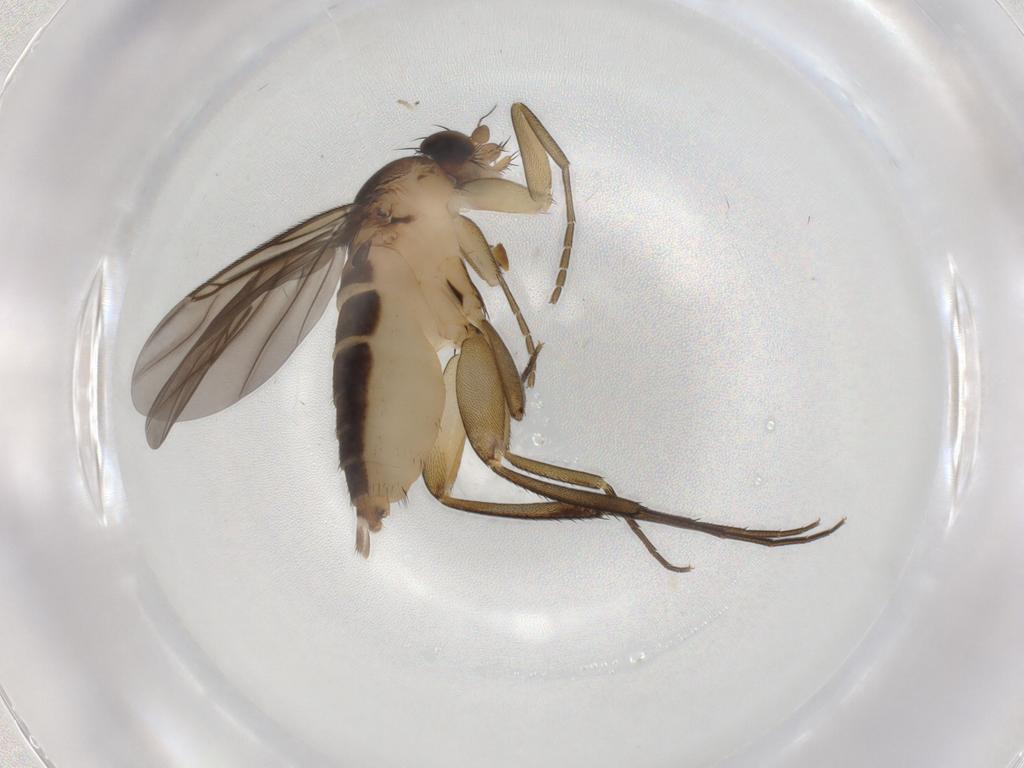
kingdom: Animalia
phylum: Arthropoda
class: Insecta
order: Diptera
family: Phoridae
